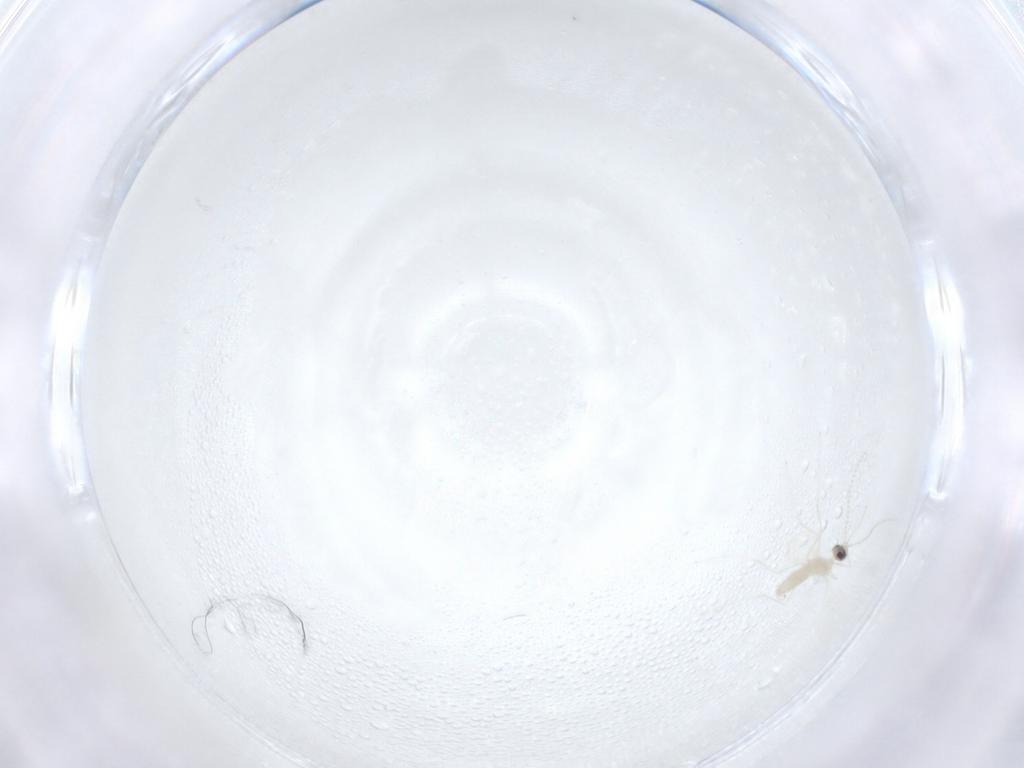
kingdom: Animalia
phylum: Arthropoda
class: Insecta
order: Diptera
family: Cecidomyiidae
